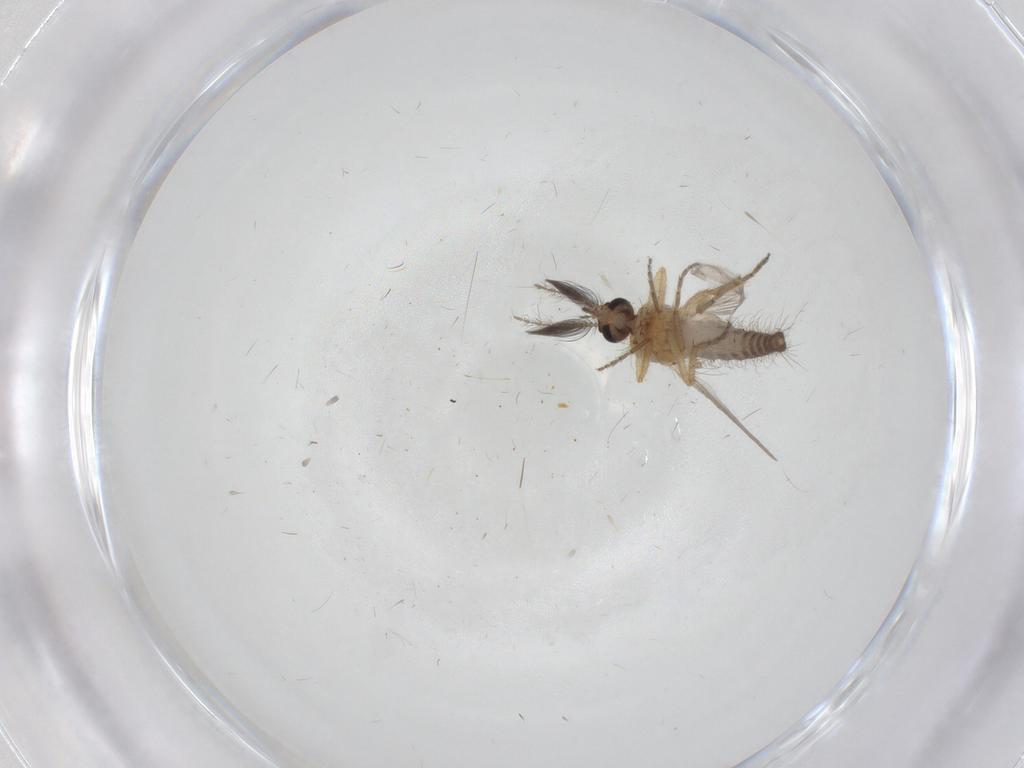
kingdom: Animalia
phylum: Arthropoda
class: Insecta
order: Diptera
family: Ceratopogonidae
